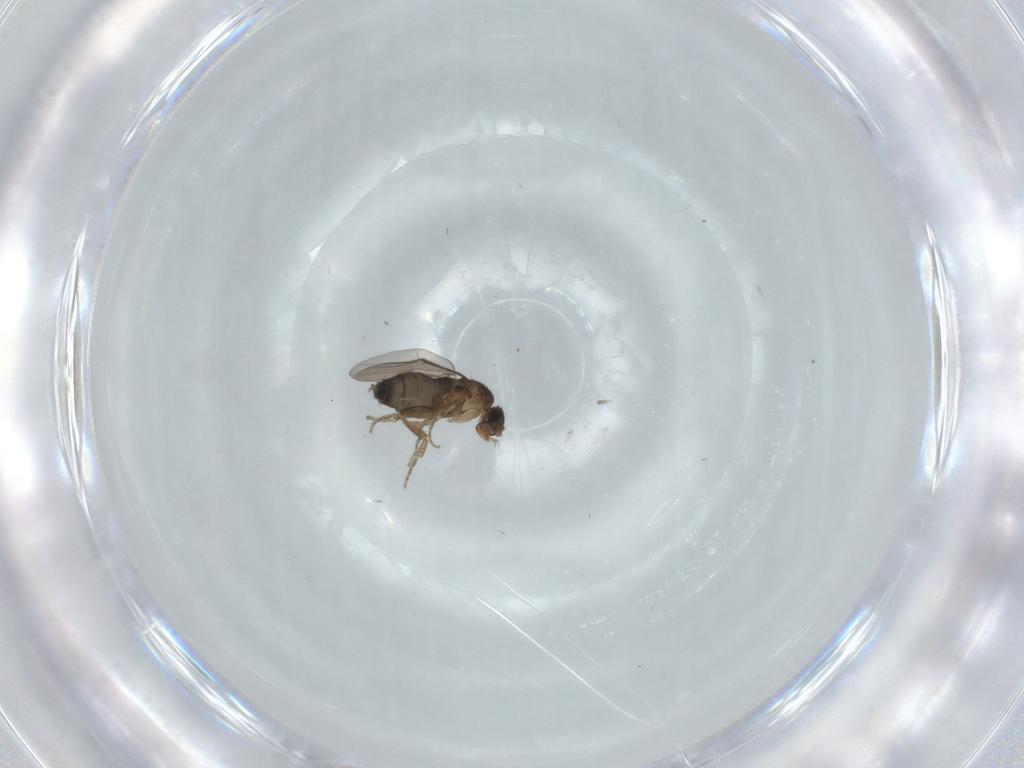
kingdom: Animalia
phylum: Arthropoda
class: Insecta
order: Diptera
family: Phoridae
